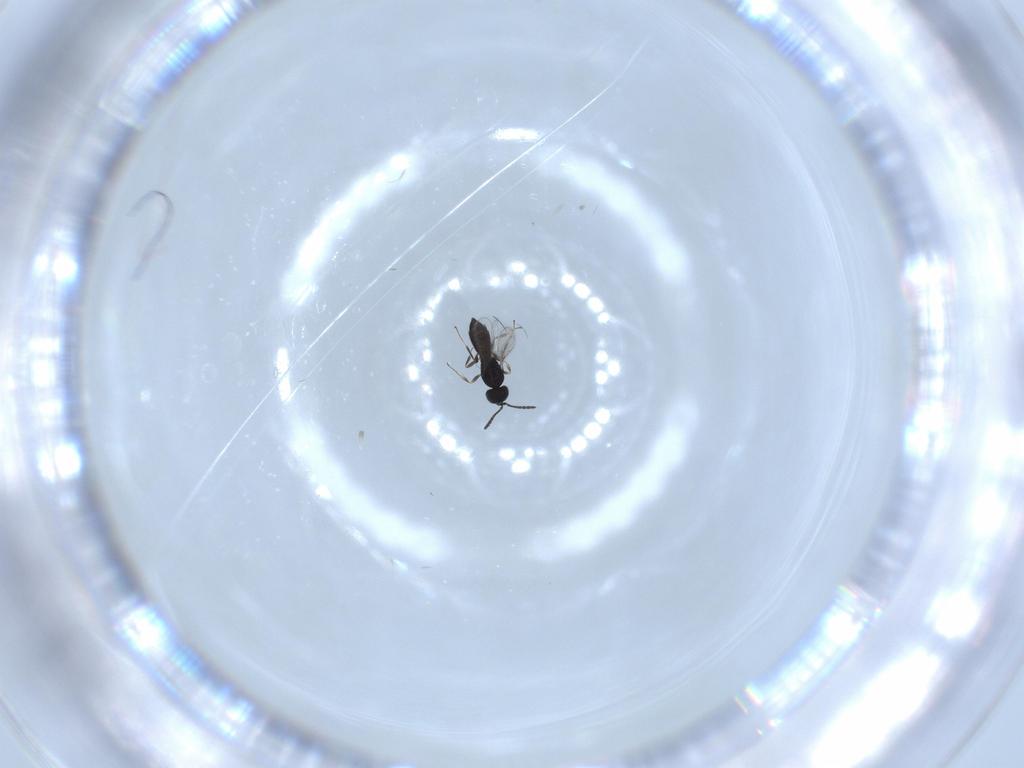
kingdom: Animalia
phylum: Arthropoda
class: Insecta
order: Hymenoptera
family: Scelionidae
